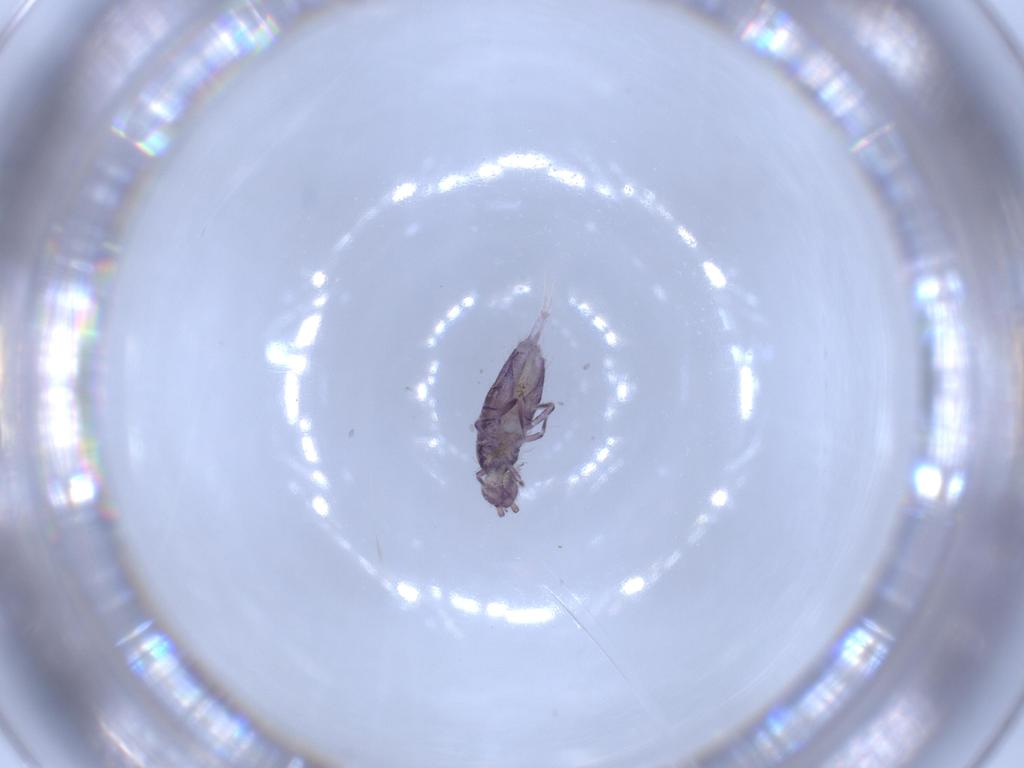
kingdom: Animalia
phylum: Arthropoda
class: Collembola
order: Entomobryomorpha
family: Entomobryidae
